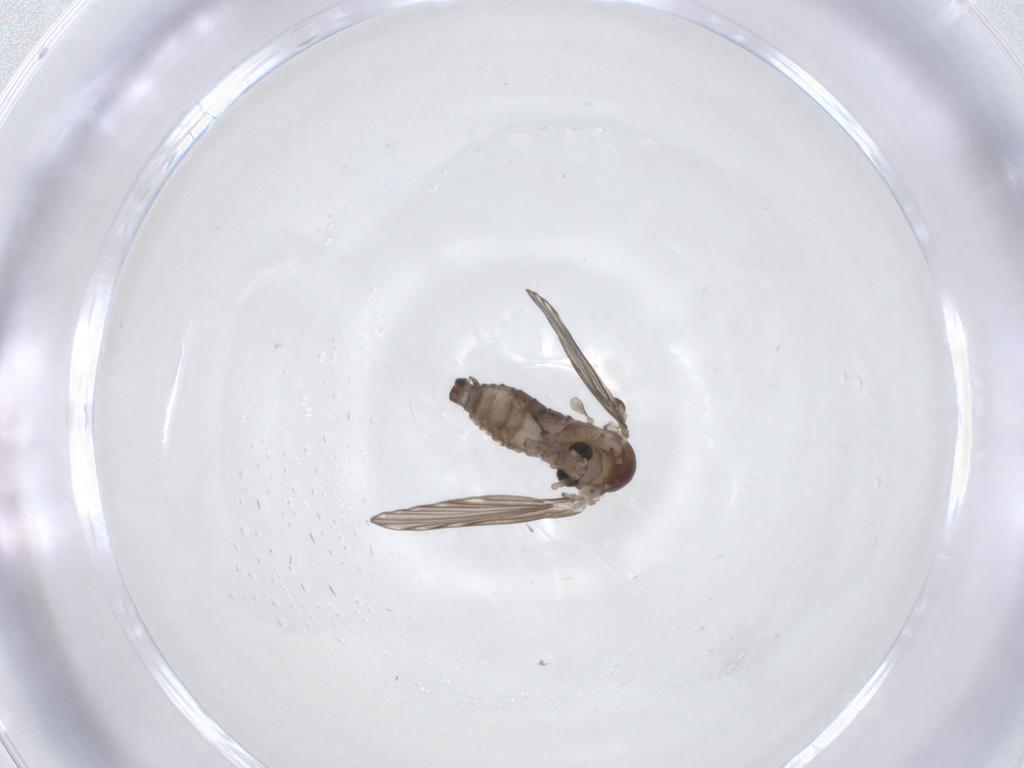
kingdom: Animalia
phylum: Arthropoda
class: Insecta
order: Diptera
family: Psychodidae
